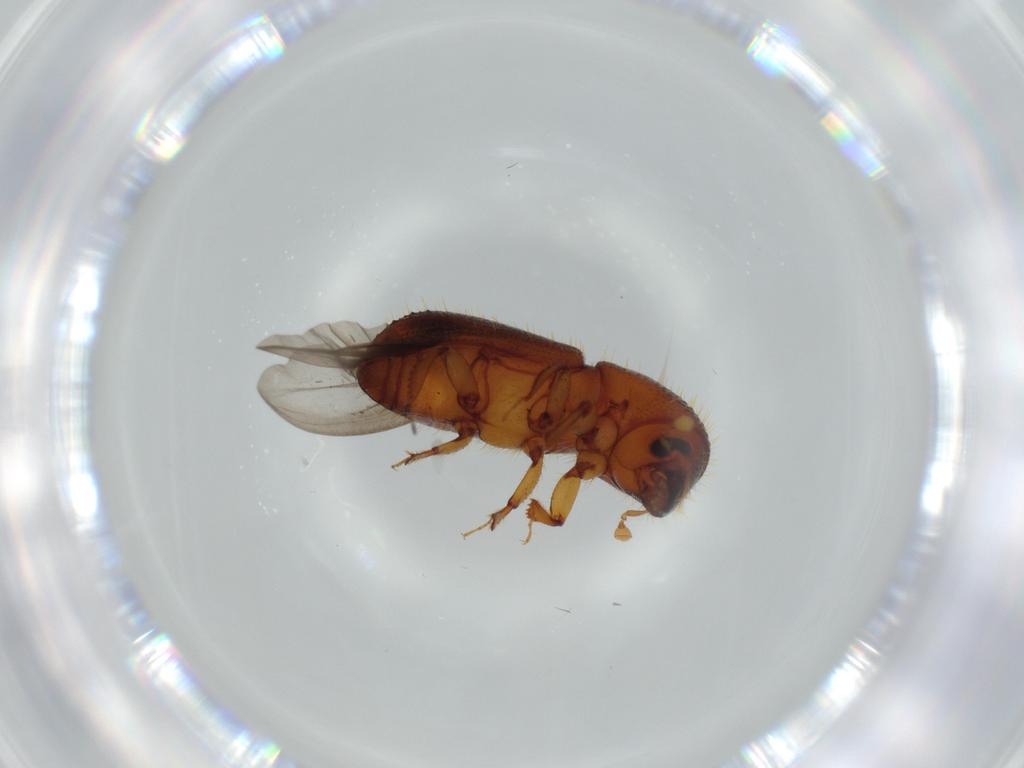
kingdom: Animalia
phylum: Arthropoda
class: Insecta
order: Coleoptera
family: Curculionidae
